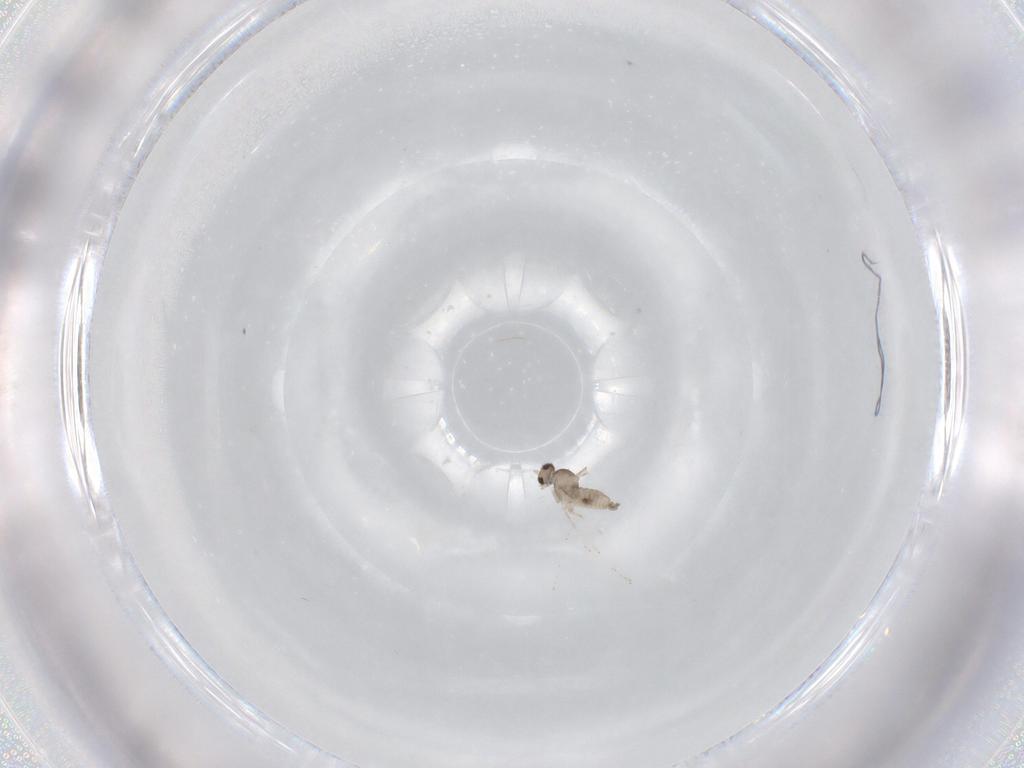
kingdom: Animalia
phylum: Arthropoda
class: Insecta
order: Diptera
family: Cecidomyiidae
